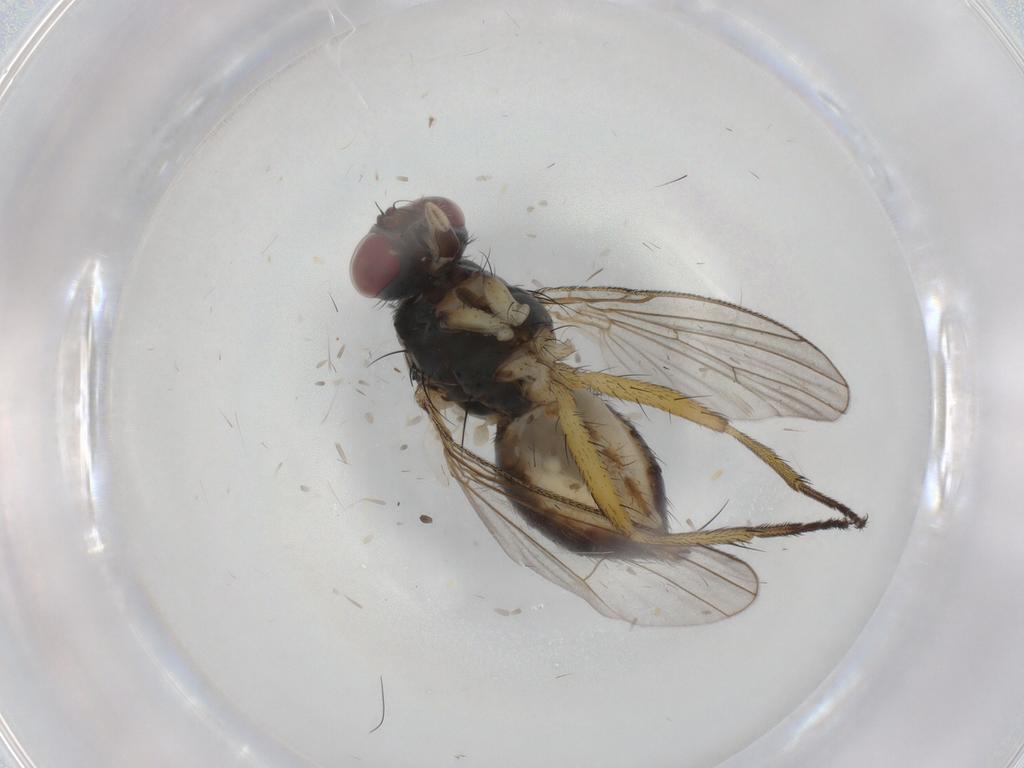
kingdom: Animalia
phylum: Arthropoda
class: Insecta
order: Diptera
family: Muscidae
